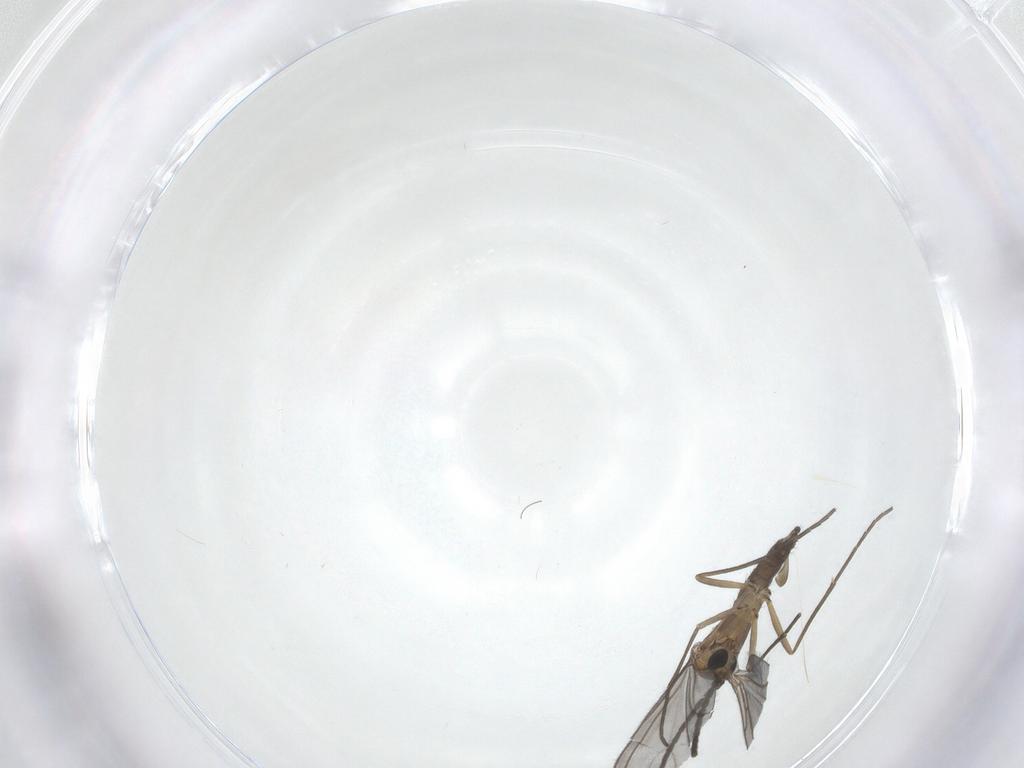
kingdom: Animalia
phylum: Arthropoda
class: Insecta
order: Diptera
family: Sciaridae
